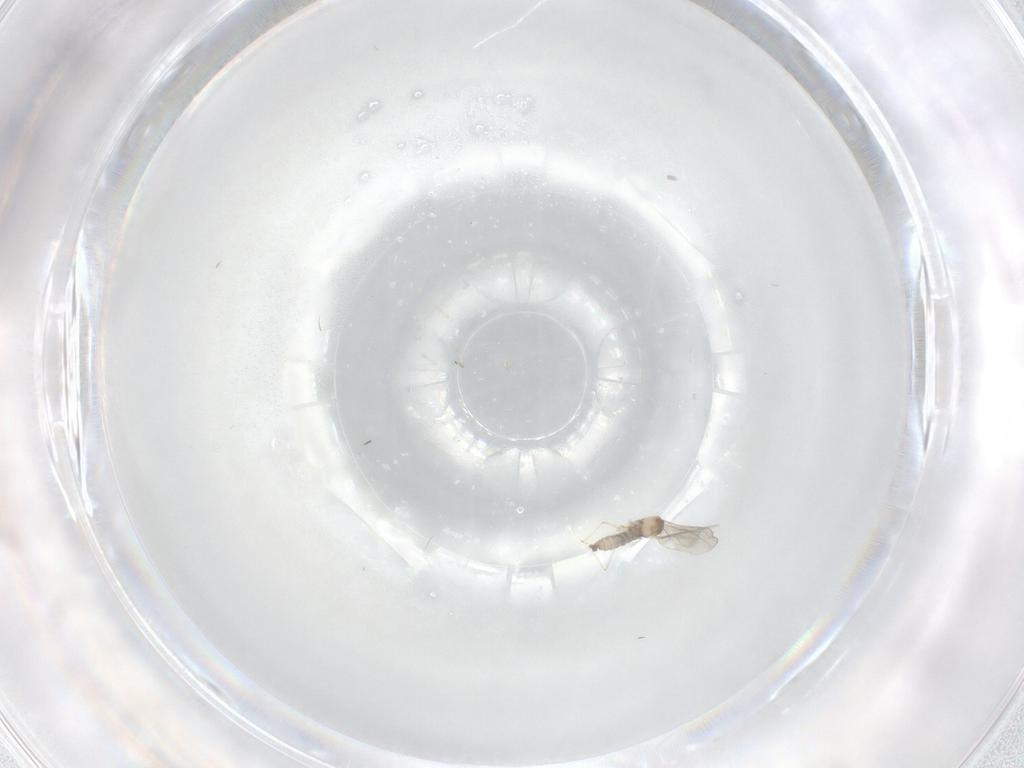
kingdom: Animalia
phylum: Arthropoda
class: Insecta
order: Diptera
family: Cecidomyiidae
